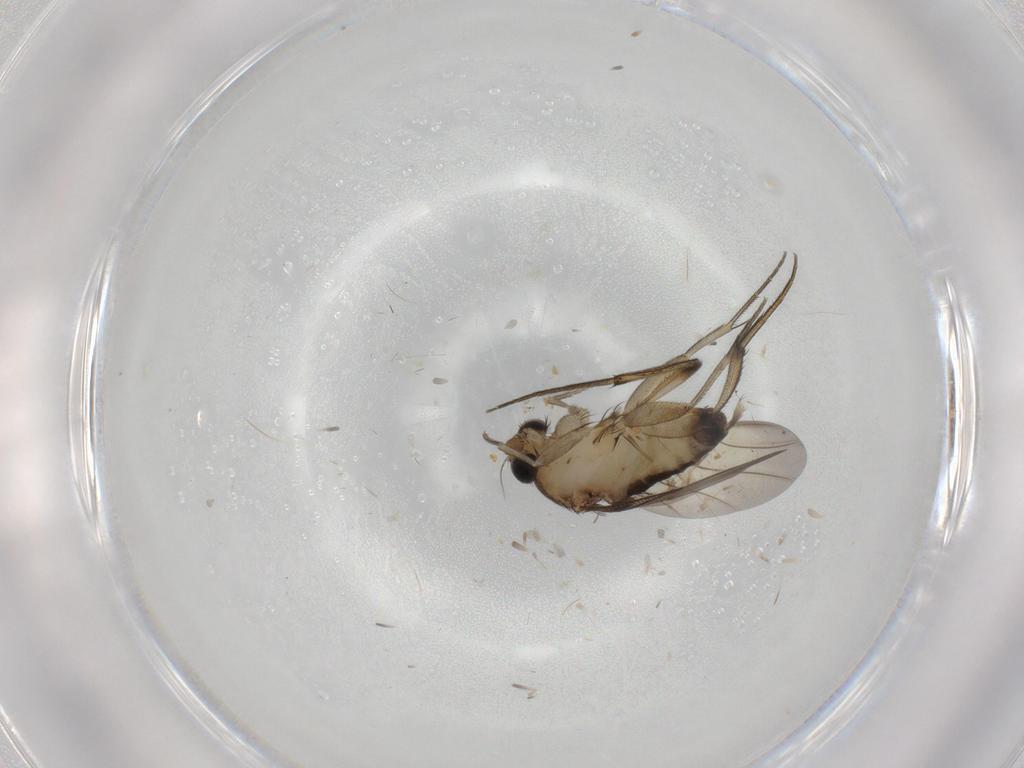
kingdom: Animalia
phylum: Arthropoda
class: Insecta
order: Diptera
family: Phoridae
